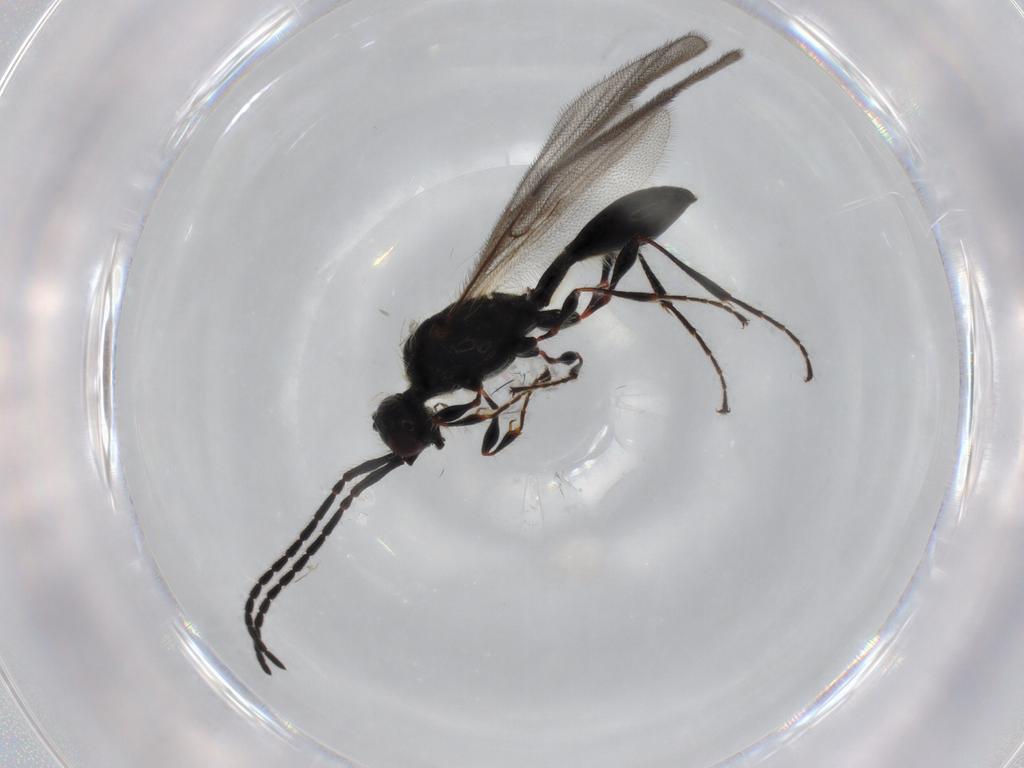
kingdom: Animalia
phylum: Arthropoda
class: Insecta
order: Hymenoptera
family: Diapriidae
